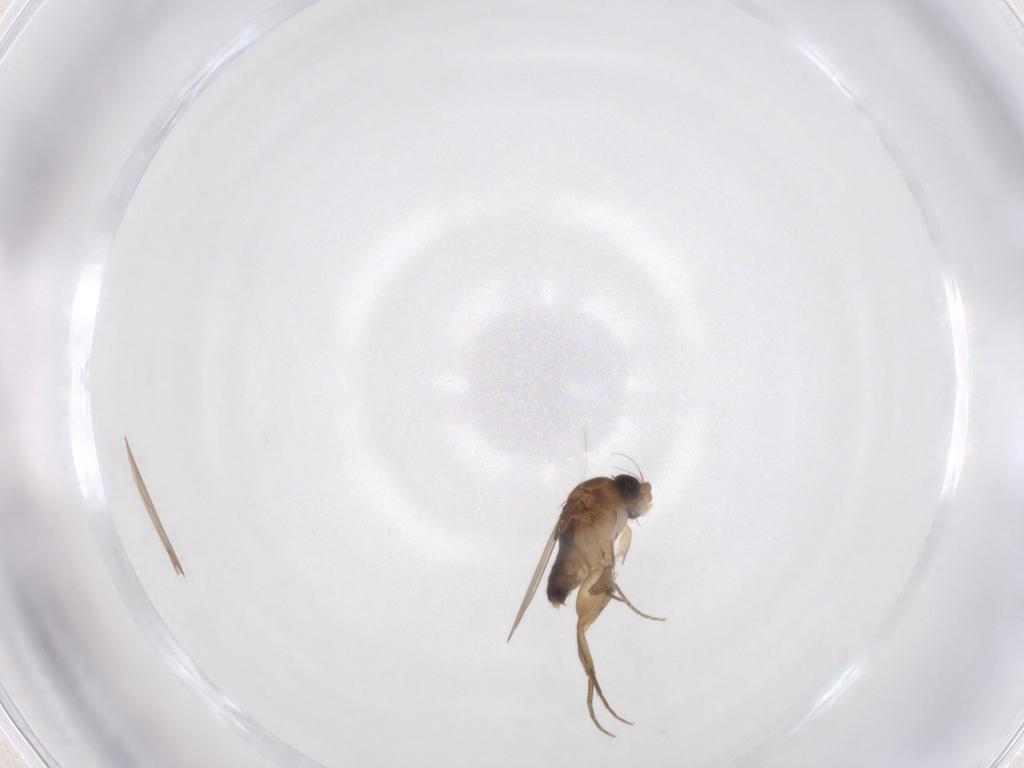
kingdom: Animalia
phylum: Arthropoda
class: Insecta
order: Diptera
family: Phoridae
